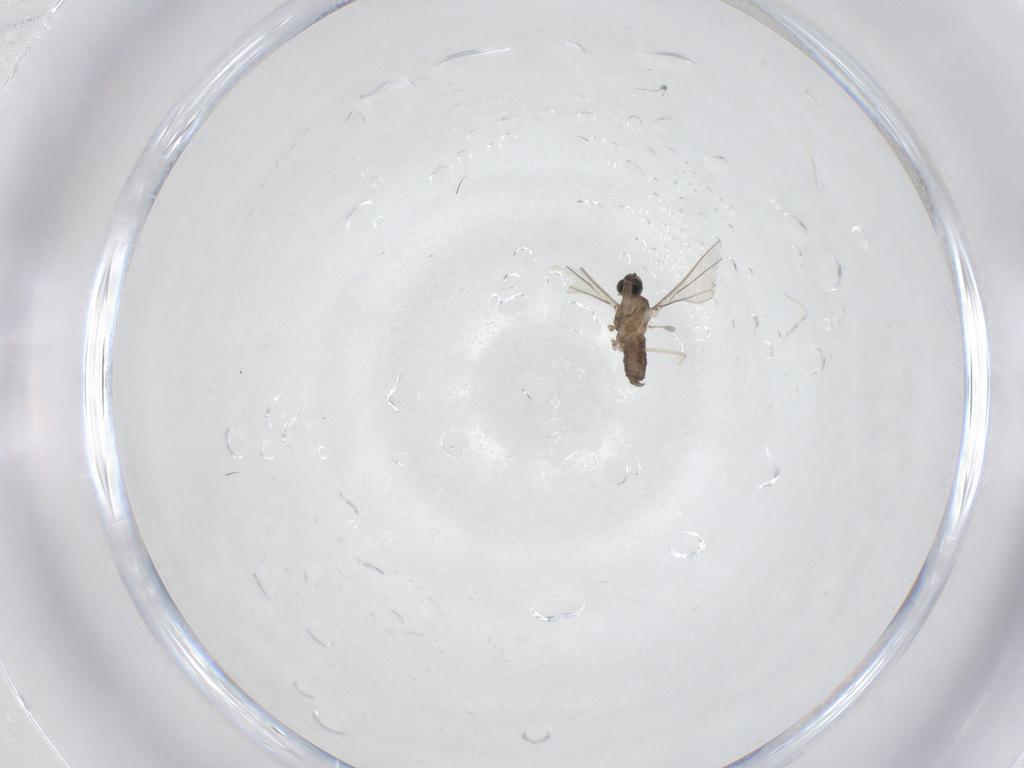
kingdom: Animalia
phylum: Arthropoda
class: Insecta
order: Diptera
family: Cecidomyiidae
